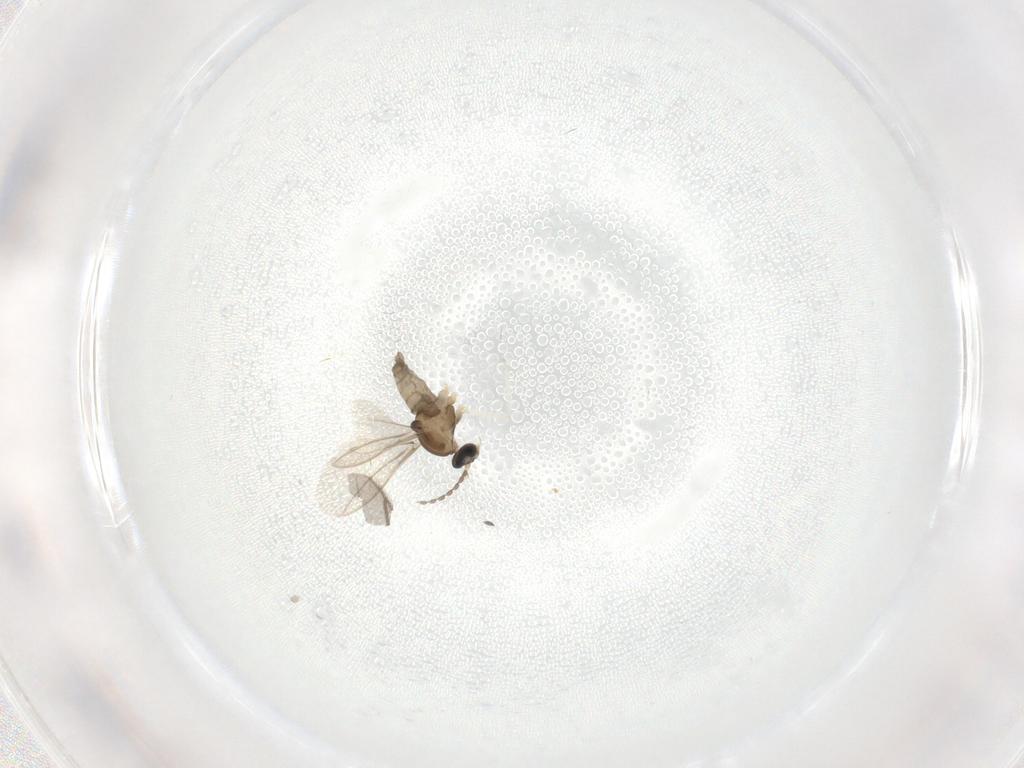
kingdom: Animalia
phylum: Arthropoda
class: Insecta
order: Diptera
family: Cecidomyiidae
